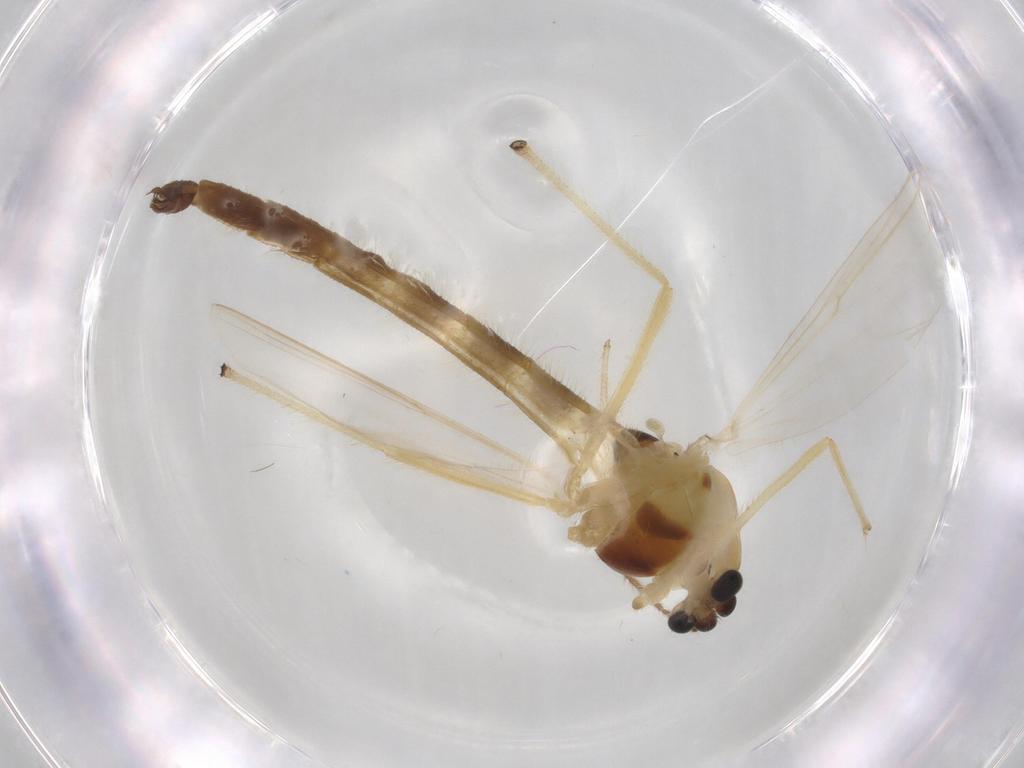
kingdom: Animalia
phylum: Arthropoda
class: Insecta
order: Diptera
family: Chironomidae
